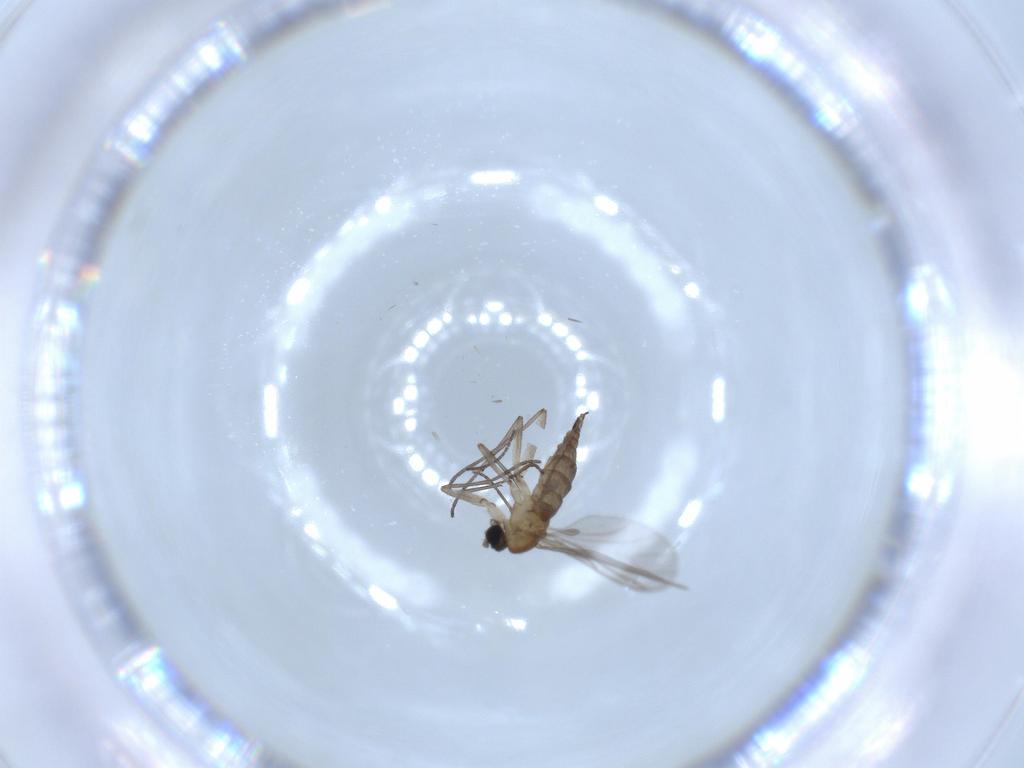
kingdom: Animalia
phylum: Arthropoda
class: Insecta
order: Diptera
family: Sciaridae
